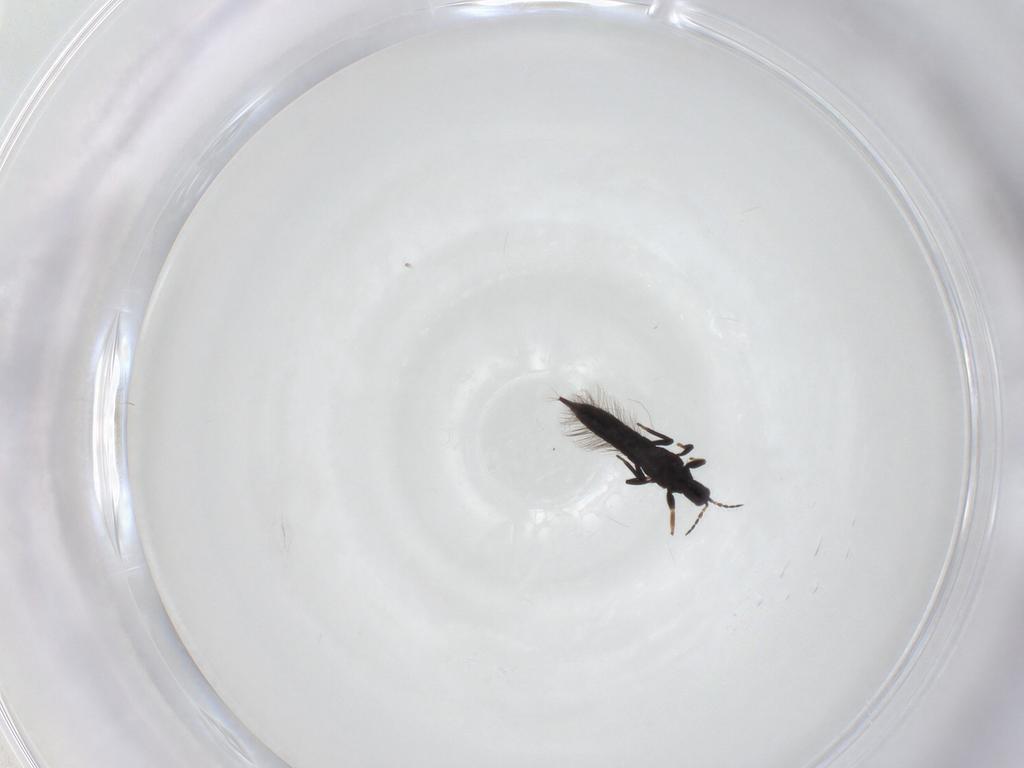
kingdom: Animalia
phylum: Arthropoda
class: Insecta
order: Thysanoptera
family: Phlaeothripidae
